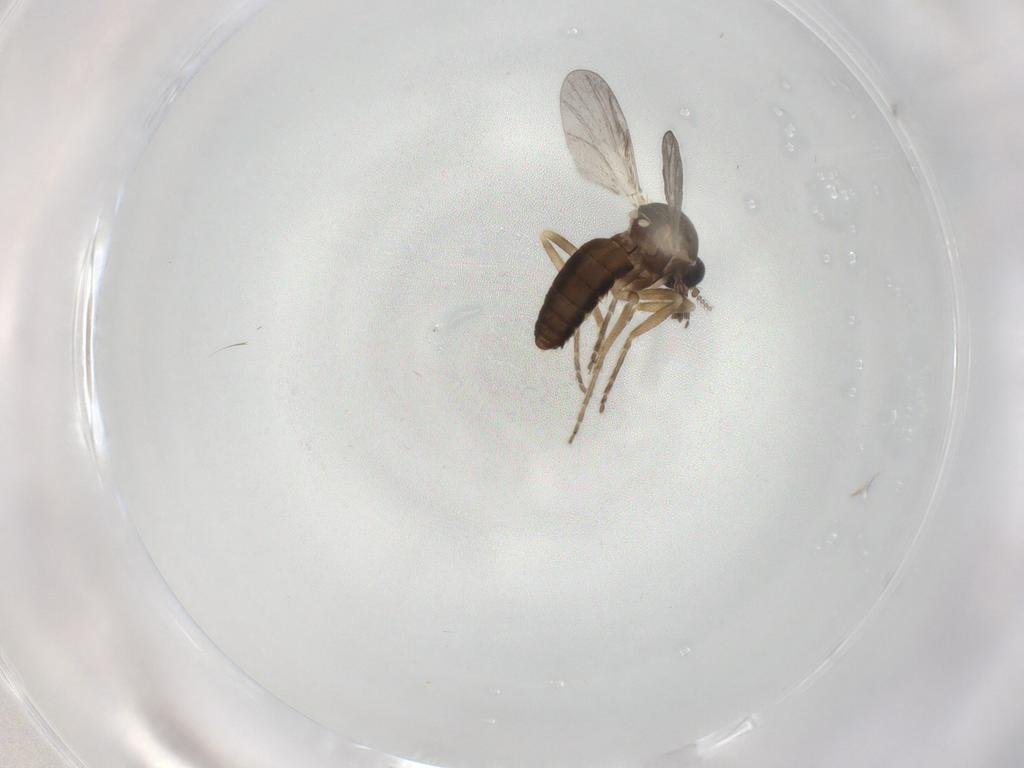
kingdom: Animalia
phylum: Arthropoda
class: Insecta
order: Diptera
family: Ceratopogonidae
